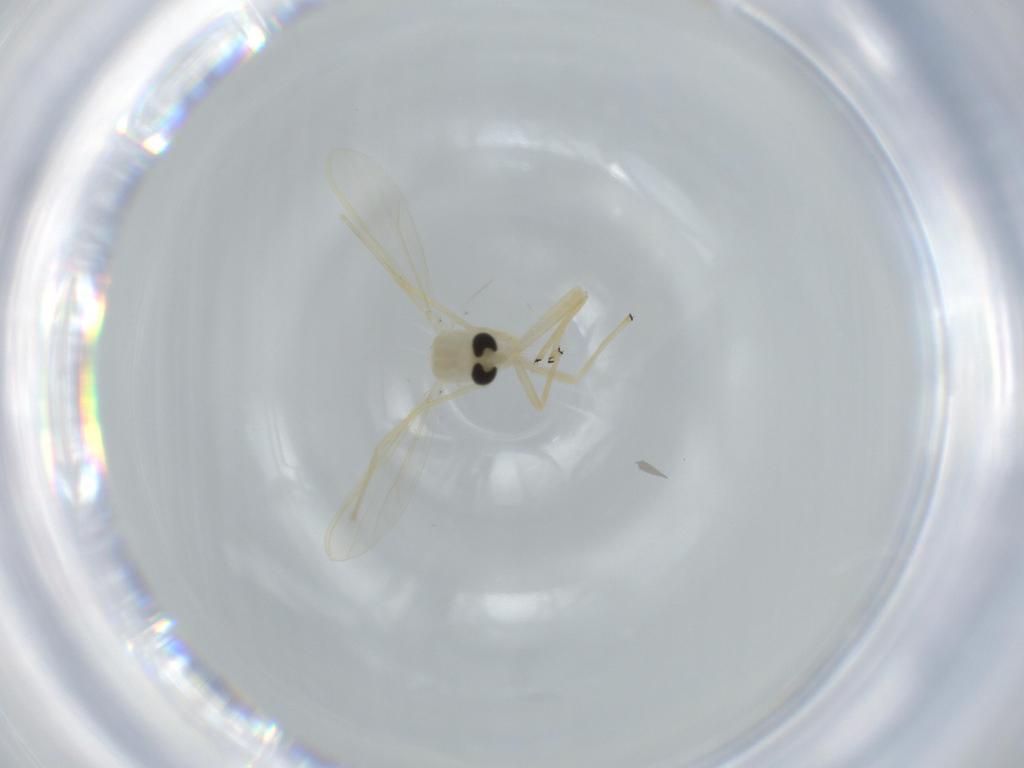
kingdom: Animalia
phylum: Arthropoda
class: Insecta
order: Diptera
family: Chironomidae
